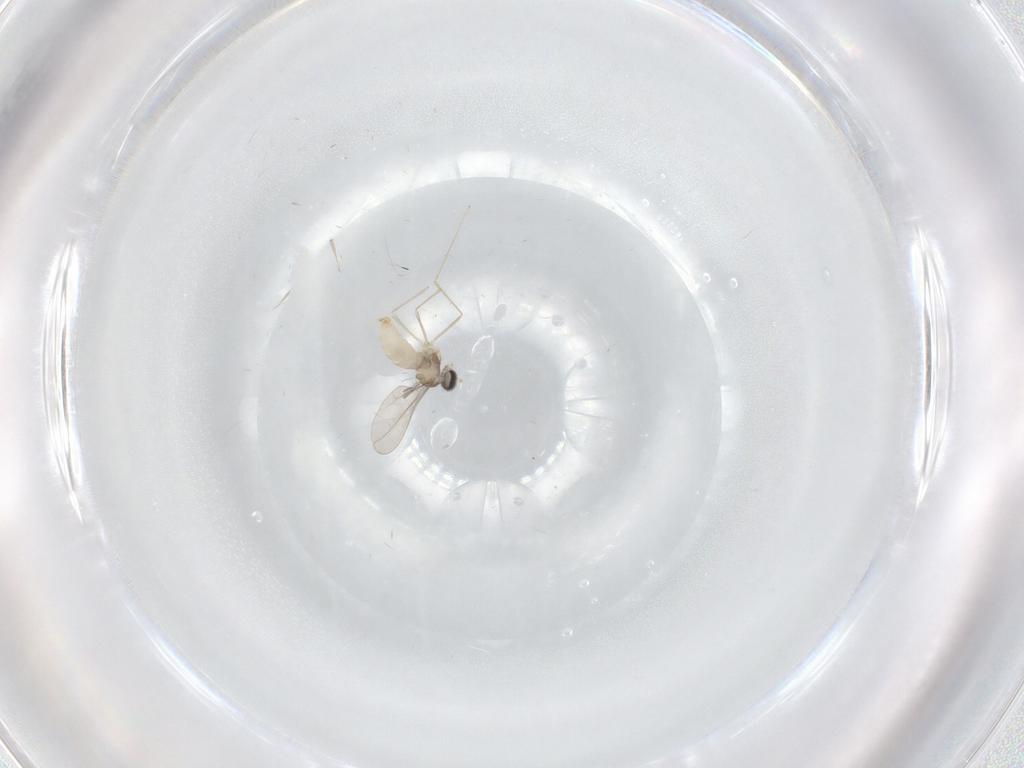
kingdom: Animalia
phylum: Arthropoda
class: Insecta
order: Diptera
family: Cecidomyiidae
